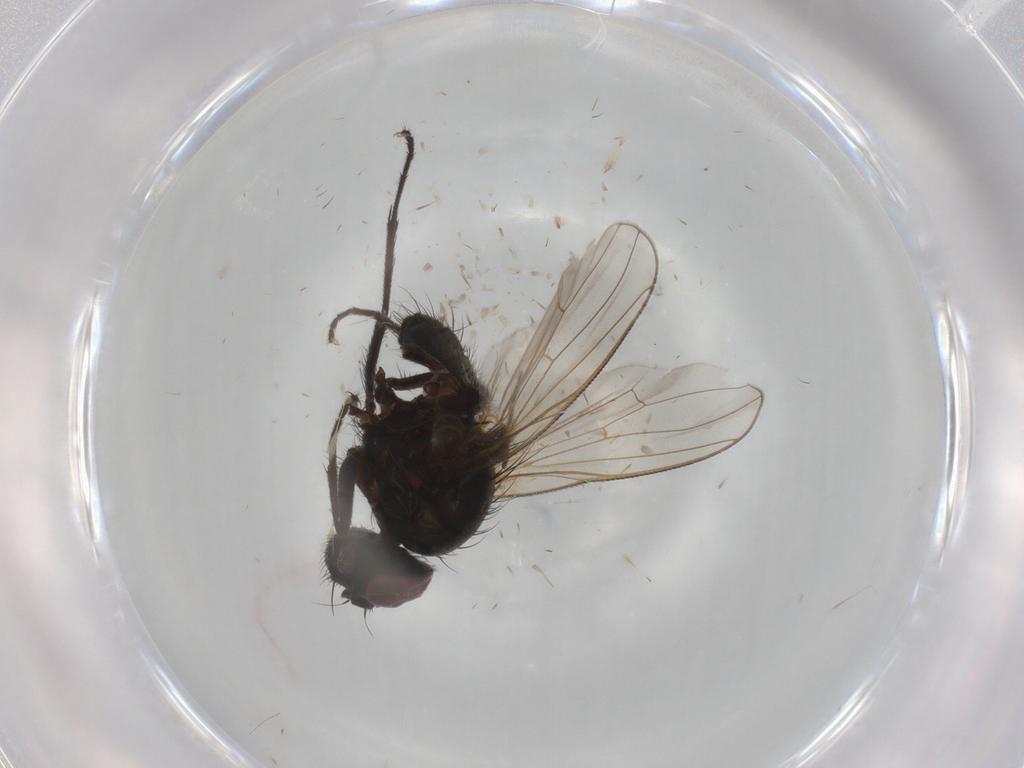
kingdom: Animalia
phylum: Arthropoda
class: Insecta
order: Diptera
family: Muscidae
